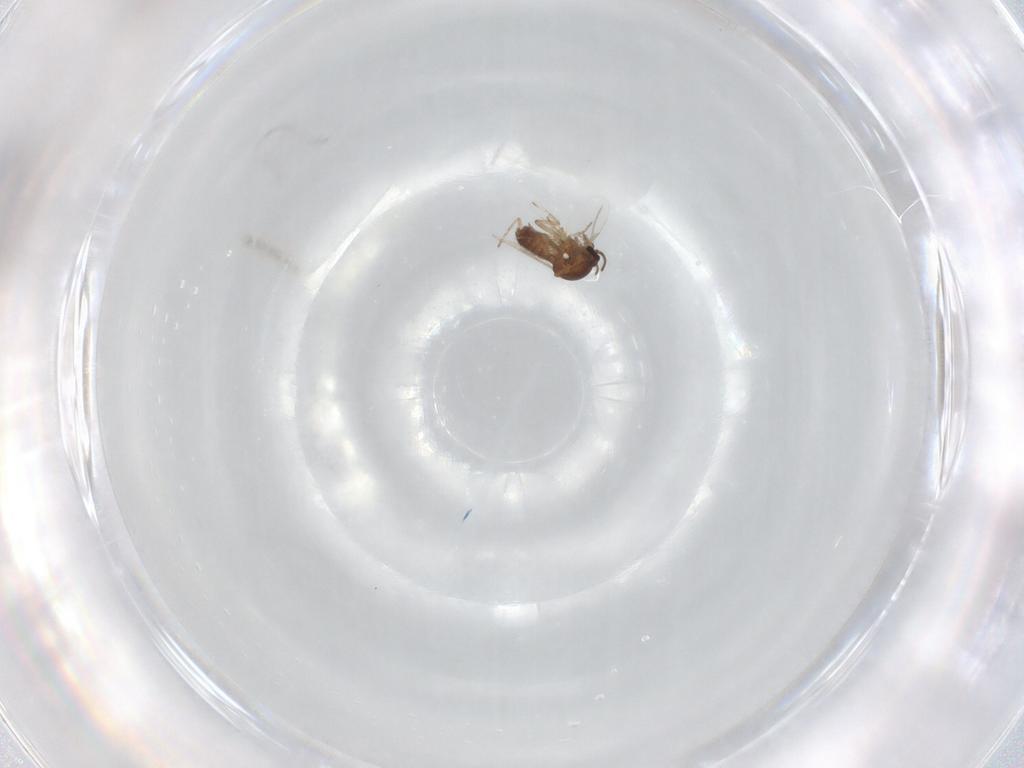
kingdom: Animalia
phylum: Arthropoda
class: Insecta
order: Diptera
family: Ceratopogonidae
